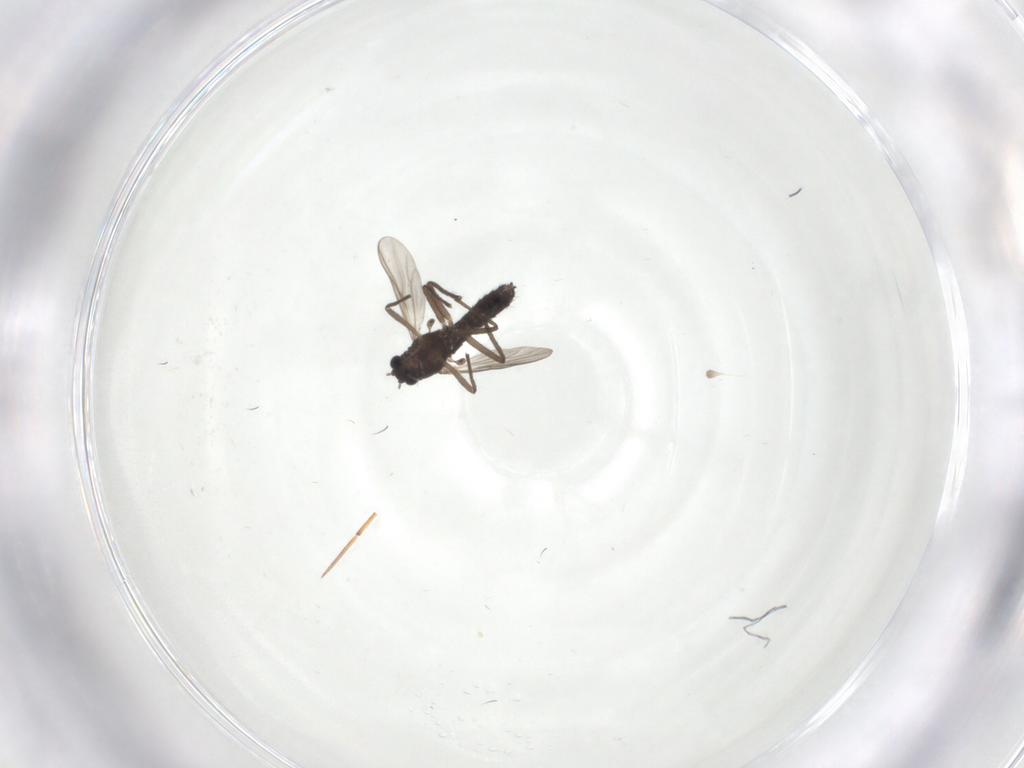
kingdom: Animalia
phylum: Arthropoda
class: Insecta
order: Diptera
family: Chironomidae
